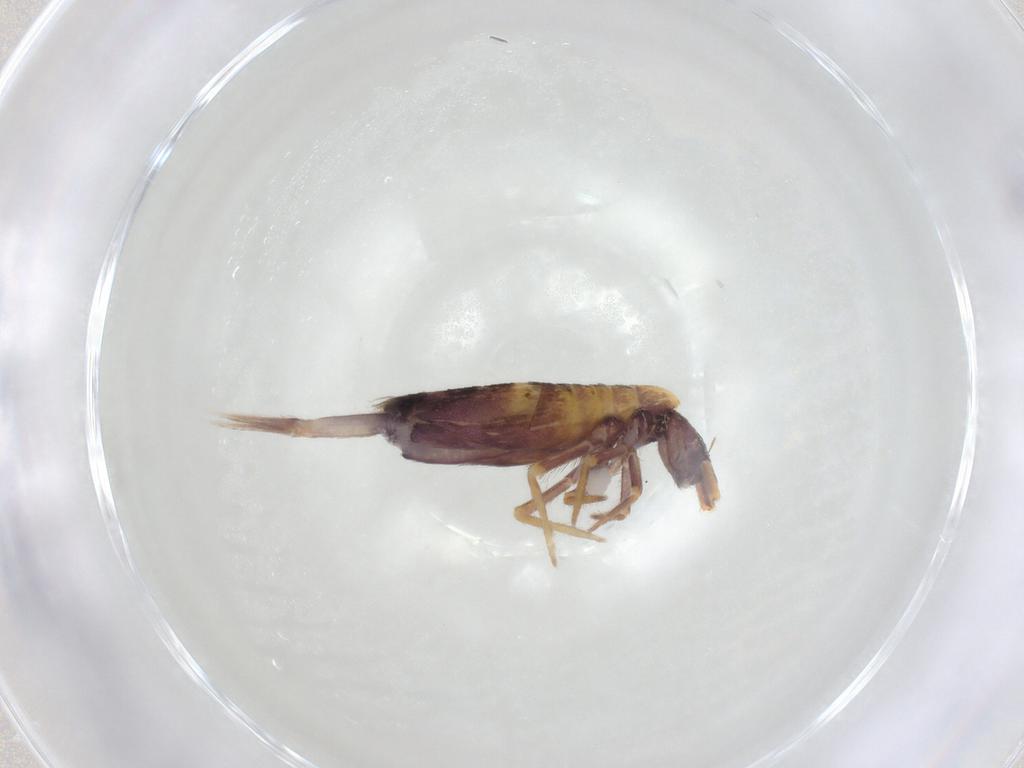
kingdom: Animalia
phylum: Arthropoda
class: Collembola
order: Entomobryomorpha
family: Entomobryidae
